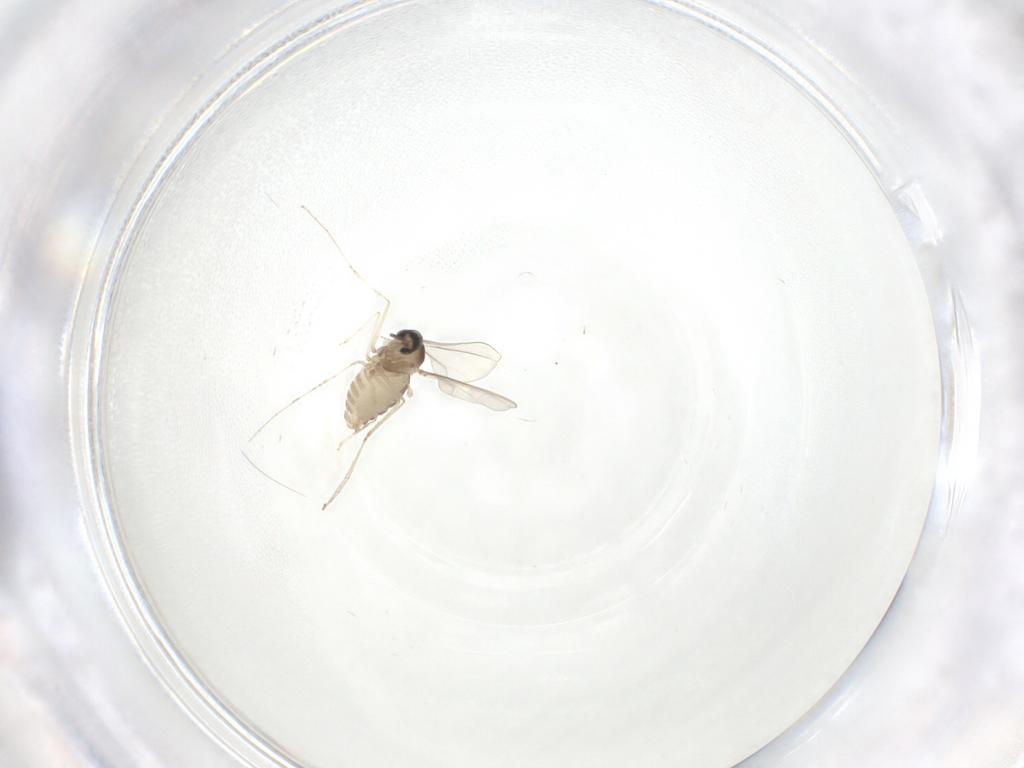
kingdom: Animalia
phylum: Arthropoda
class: Insecta
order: Diptera
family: Cecidomyiidae
